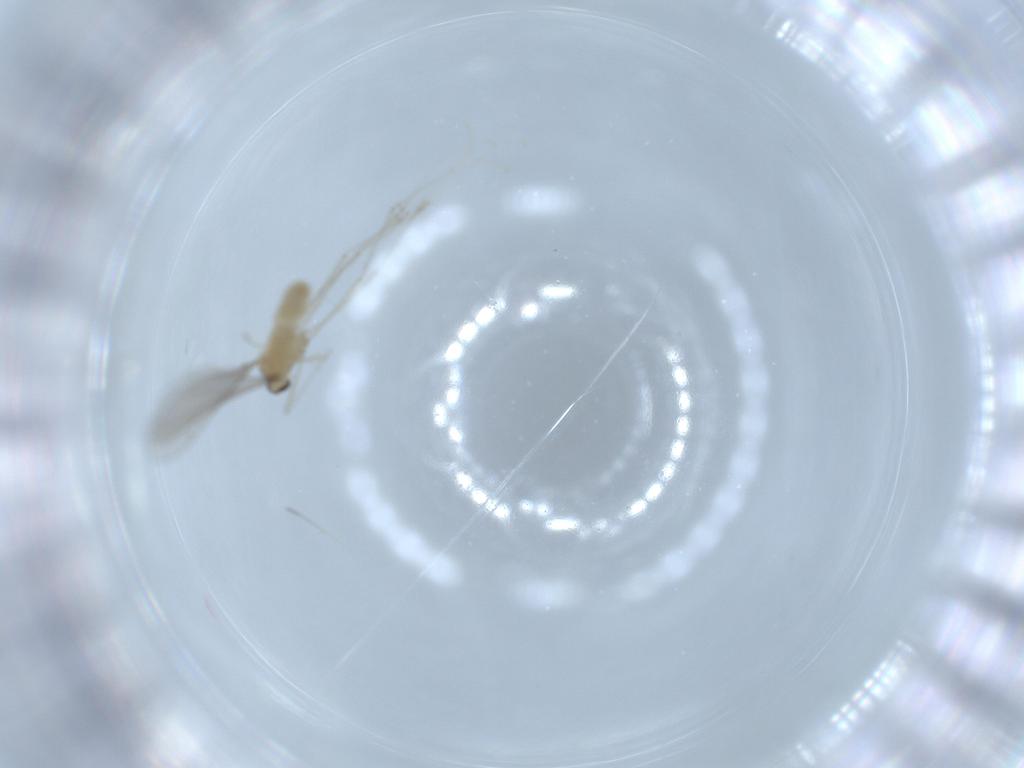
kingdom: Animalia
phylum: Arthropoda
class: Insecta
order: Diptera
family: Cecidomyiidae
